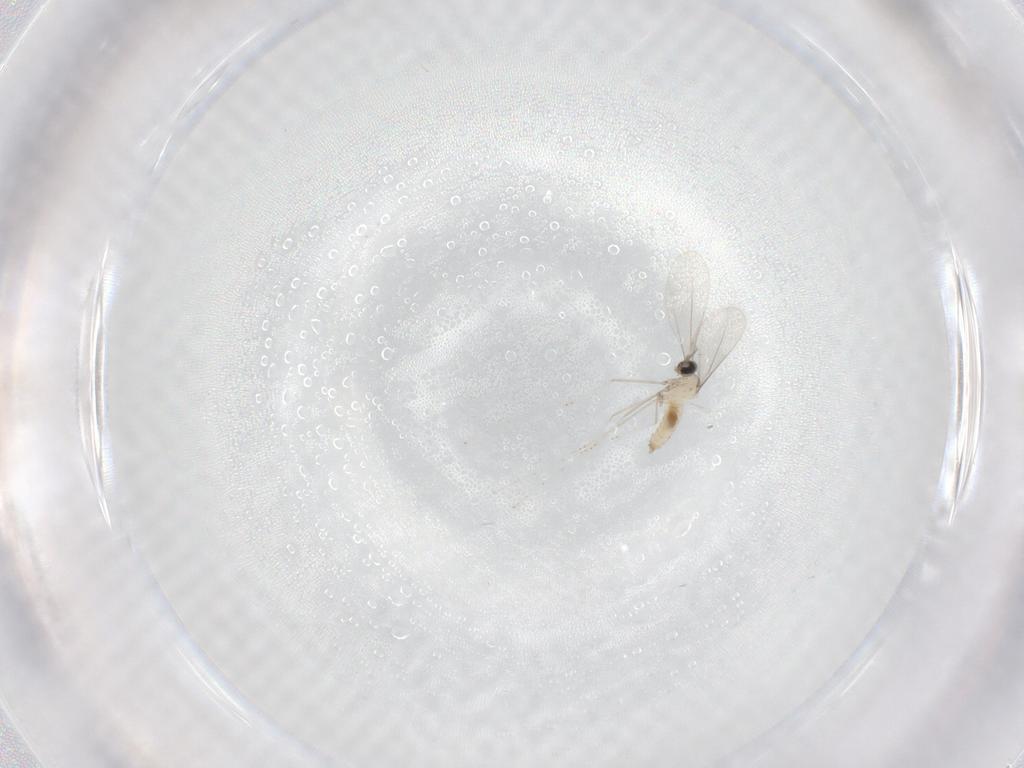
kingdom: Animalia
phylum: Arthropoda
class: Insecta
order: Diptera
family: Cecidomyiidae
